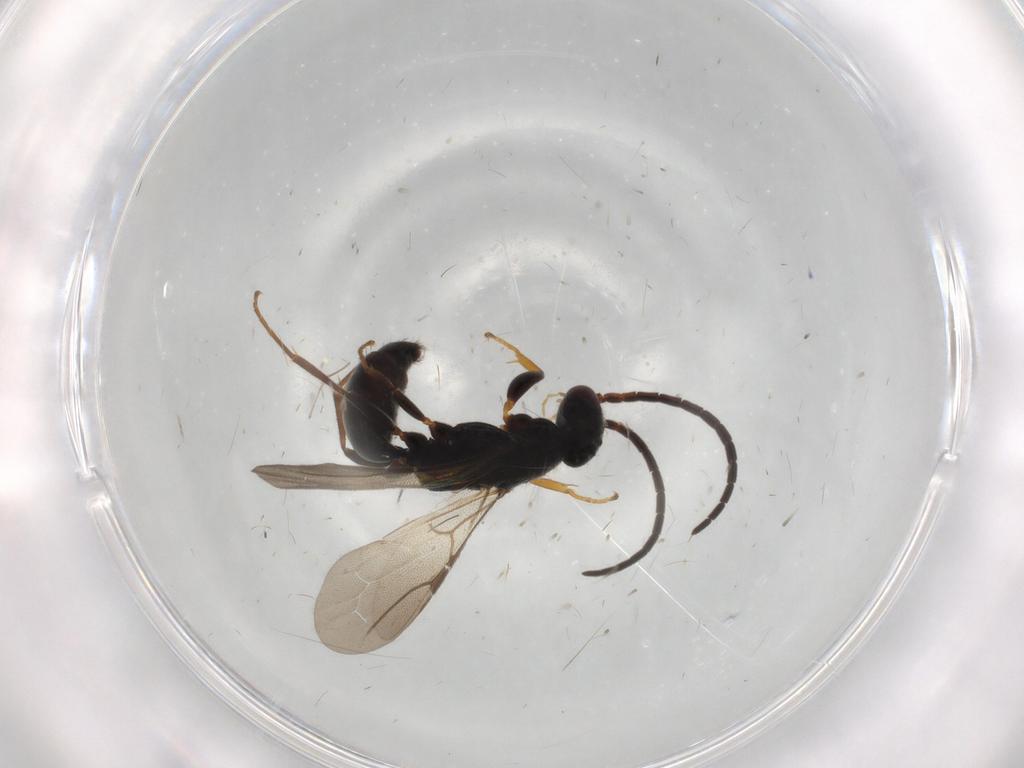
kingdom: Animalia
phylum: Arthropoda
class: Insecta
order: Hymenoptera
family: Bethylidae
